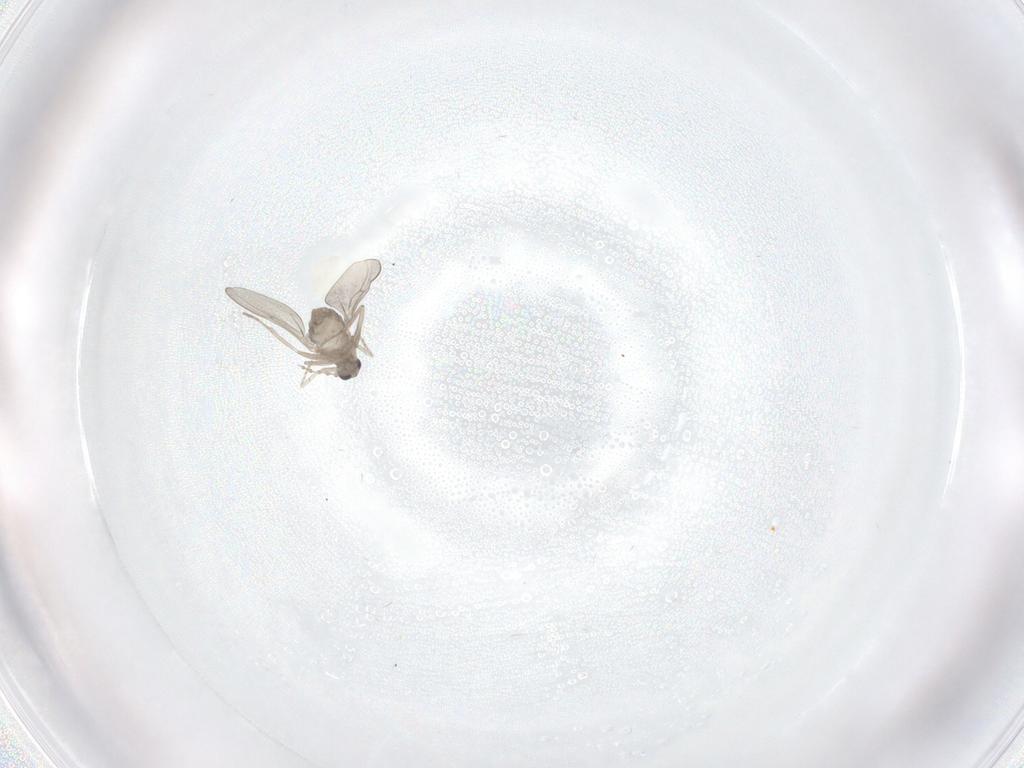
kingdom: Animalia
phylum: Arthropoda
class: Insecta
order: Diptera
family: Cecidomyiidae
